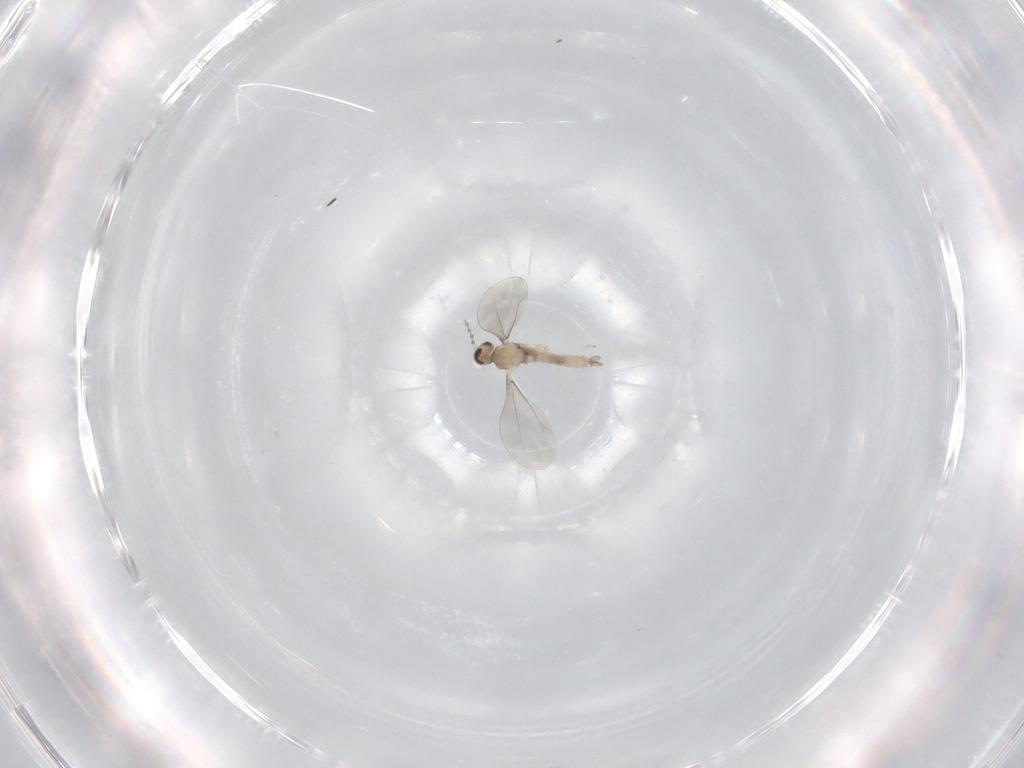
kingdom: Animalia
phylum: Arthropoda
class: Insecta
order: Diptera
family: Cecidomyiidae
